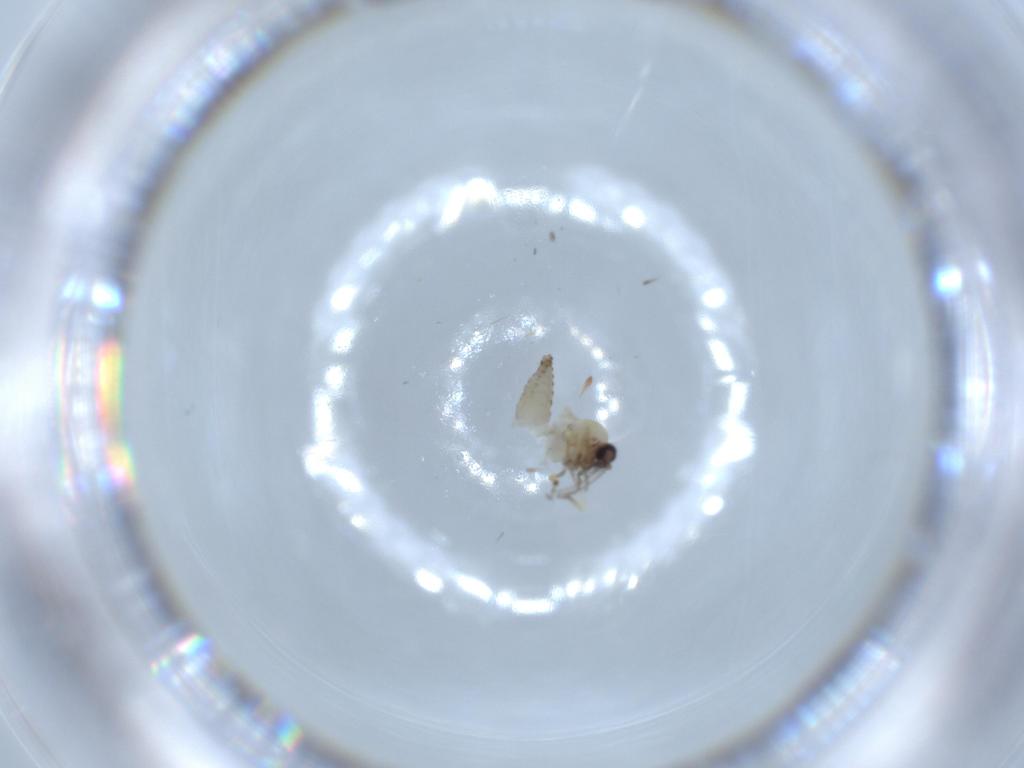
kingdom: Animalia
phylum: Arthropoda
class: Insecta
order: Diptera
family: Ceratopogonidae
